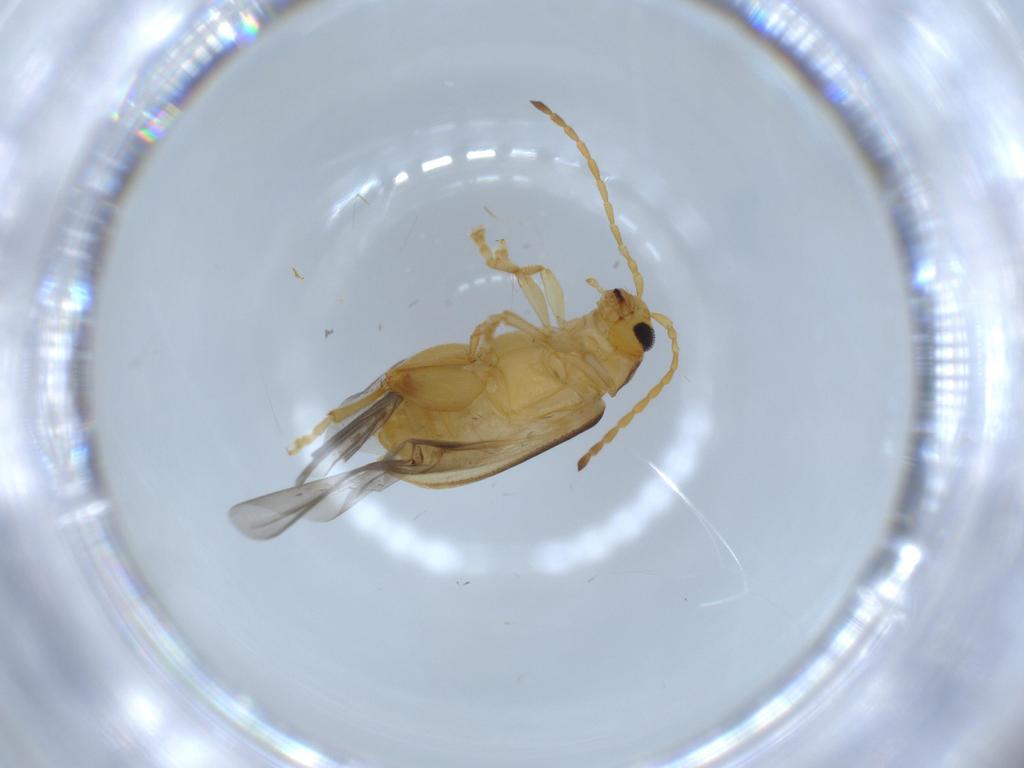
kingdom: Animalia
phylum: Arthropoda
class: Insecta
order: Coleoptera
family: Chrysomelidae
